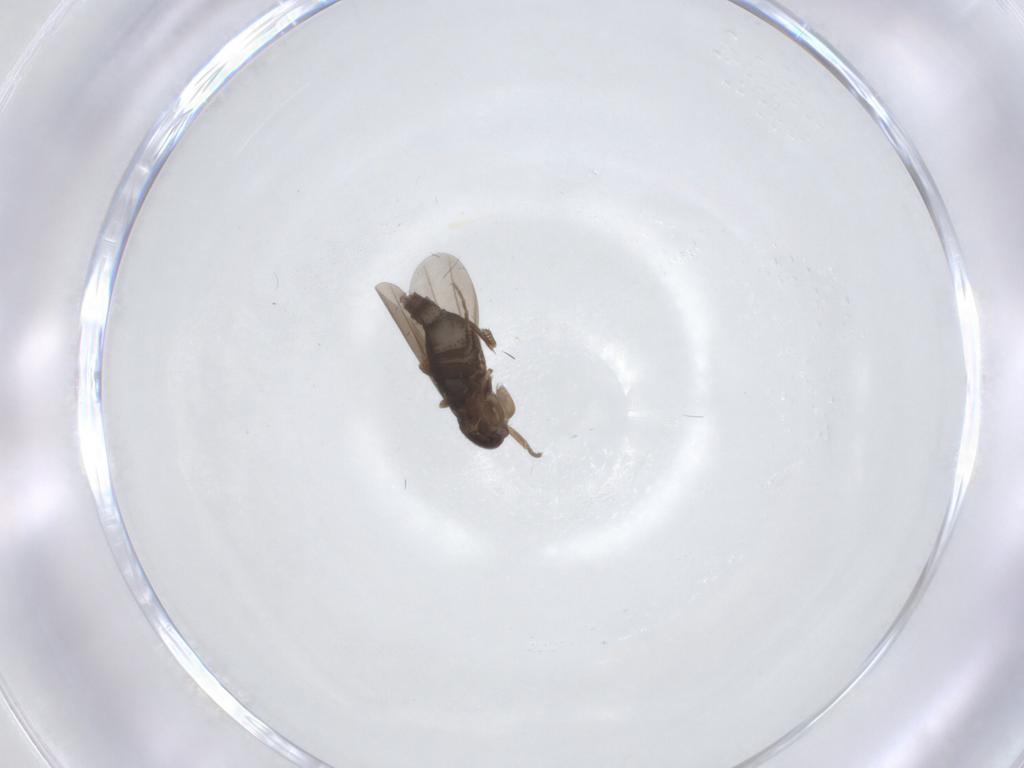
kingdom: Animalia
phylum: Arthropoda
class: Insecta
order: Diptera
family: Phoridae
